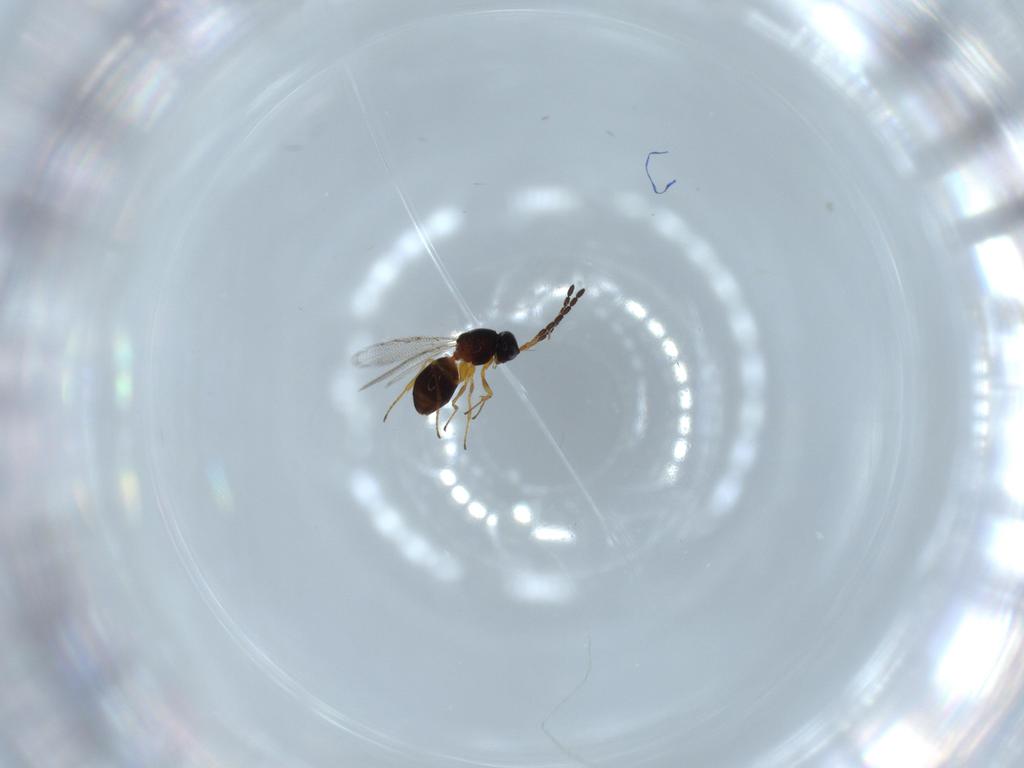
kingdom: Animalia
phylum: Arthropoda
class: Insecta
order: Hymenoptera
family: Figitidae
